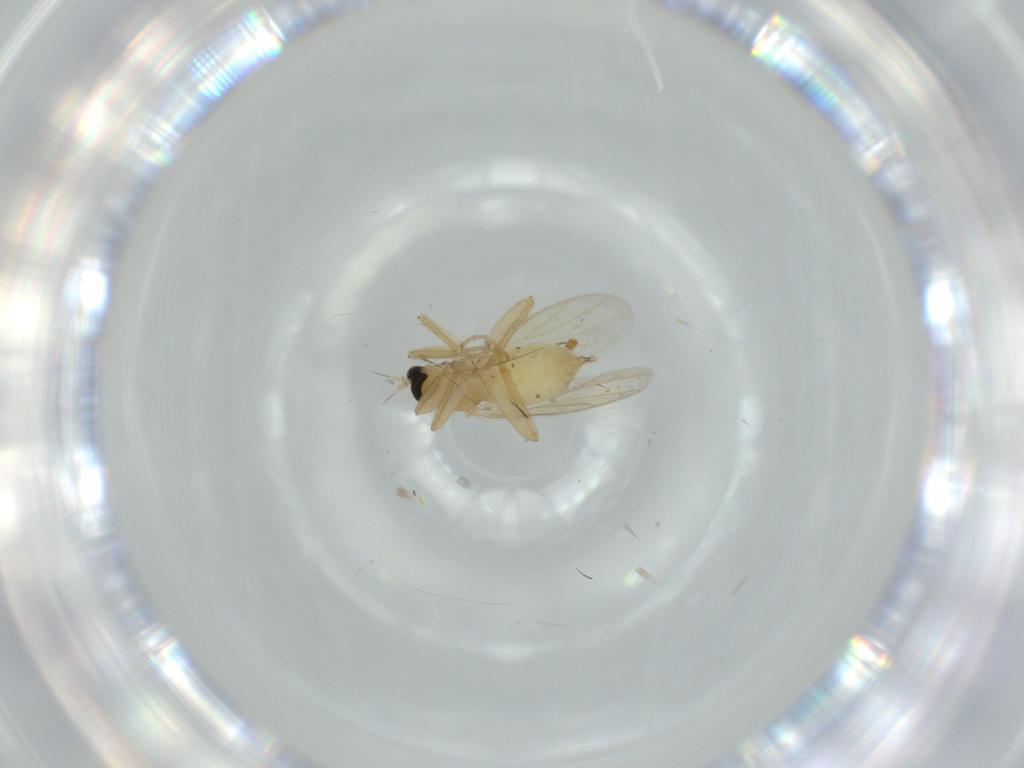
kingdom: Animalia
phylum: Arthropoda
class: Insecta
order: Diptera
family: Hybotidae
